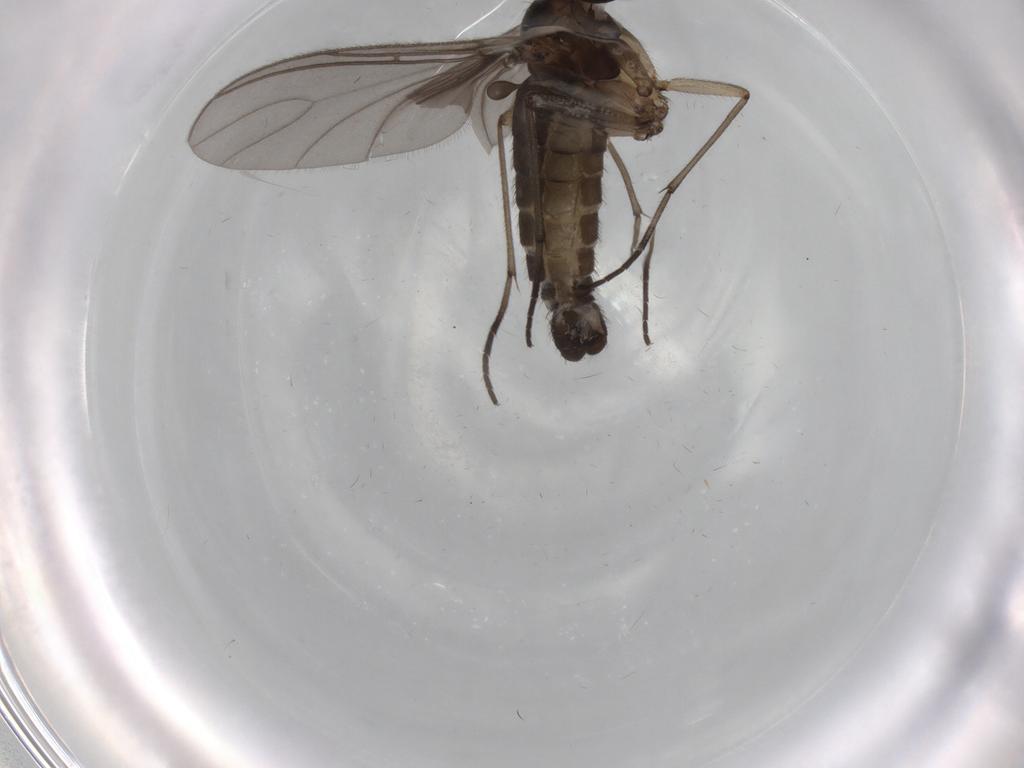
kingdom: Animalia
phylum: Arthropoda
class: Insecta
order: Diptera
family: Sciaridae
